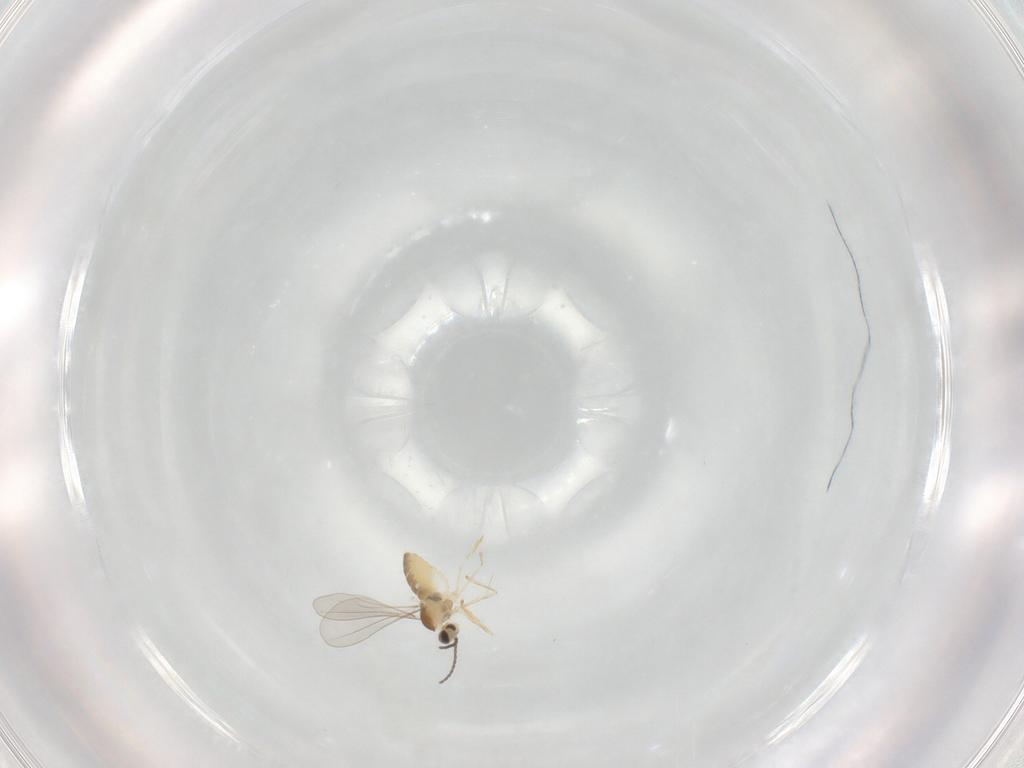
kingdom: Animalia
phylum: Arthropoda
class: Insecta
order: Diptera
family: Cecidomyiidae
